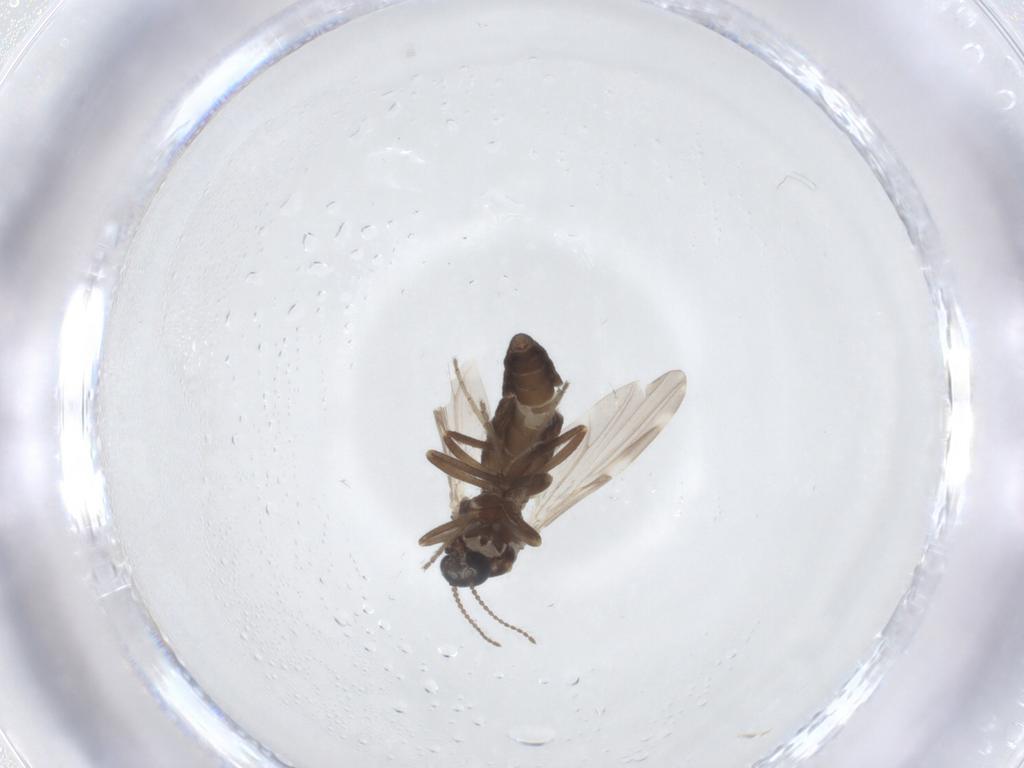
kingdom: Animalia
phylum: Arthropoda
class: Insecta
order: Diptera
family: Ceratopogonidae
